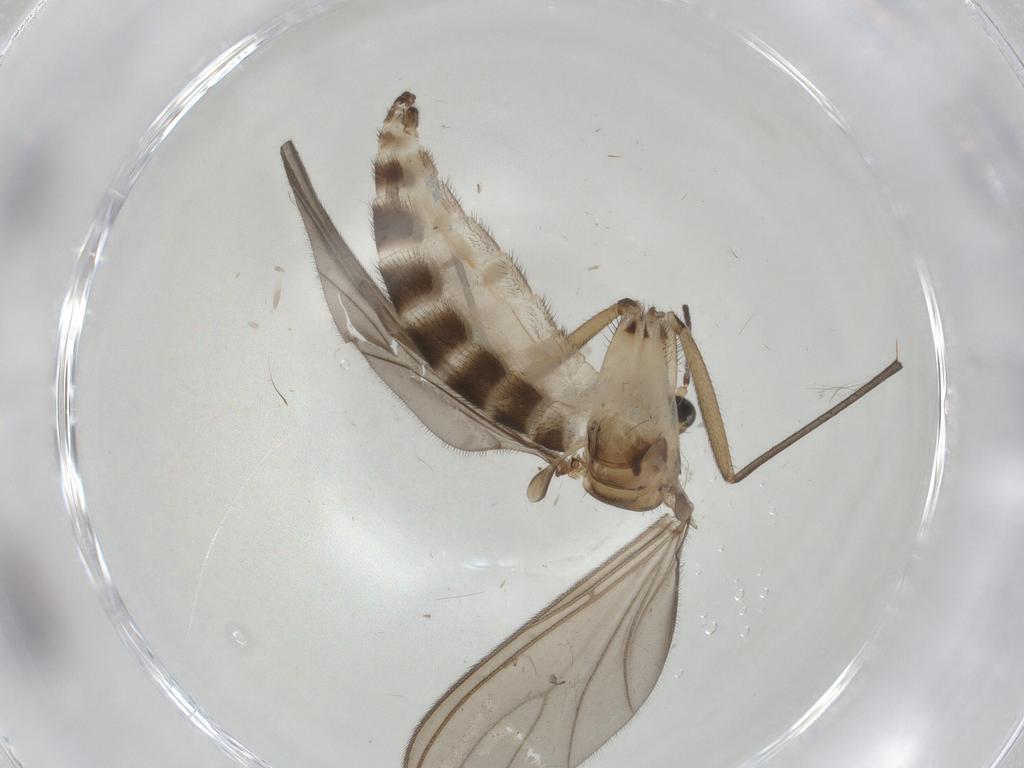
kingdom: Animalia
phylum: Arthropoda
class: Insecta
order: Diptera
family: Sciaridae
